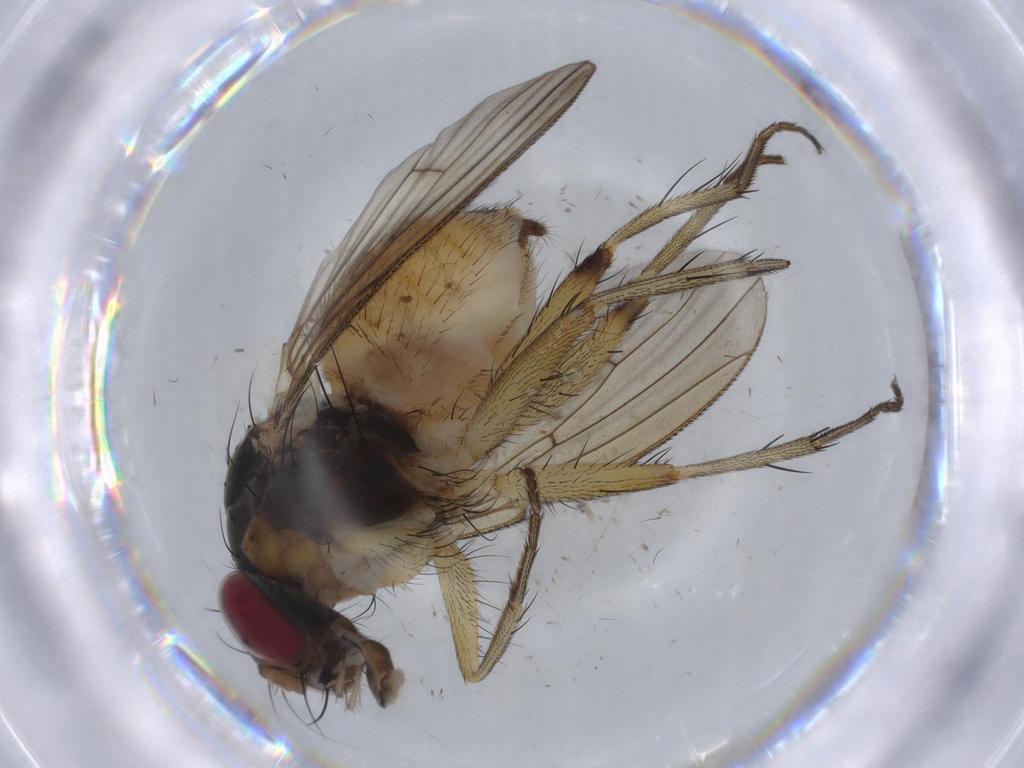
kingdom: Animalia
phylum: Arthropoda
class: Insecta
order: Diptera
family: Muscidae
